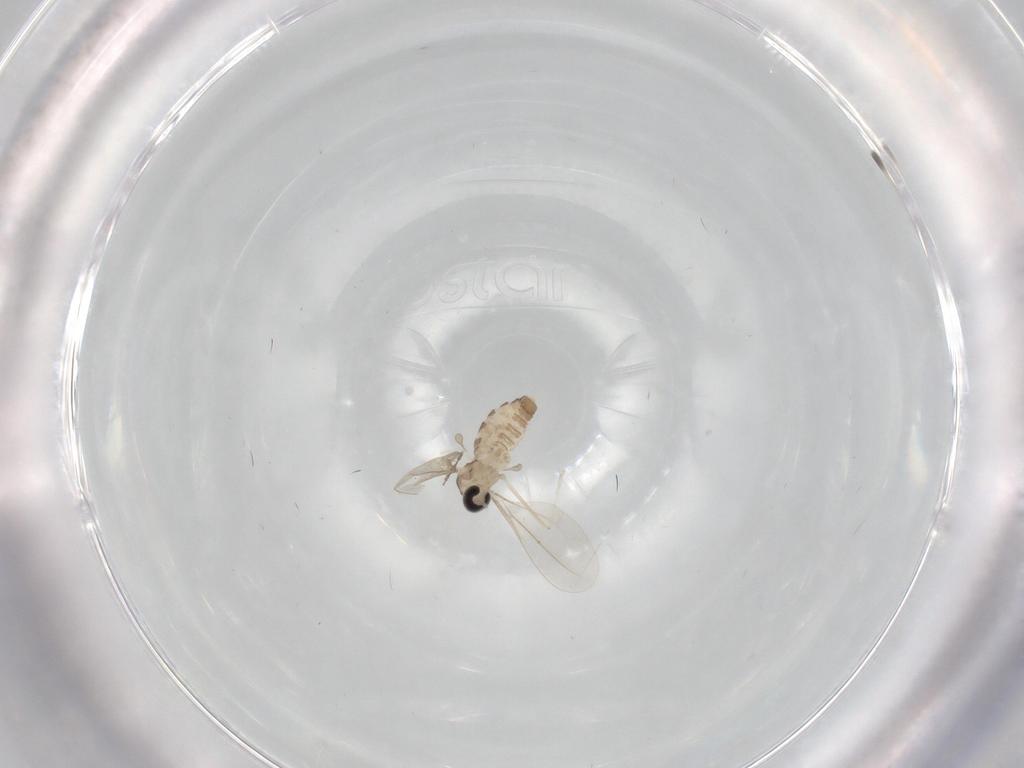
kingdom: Animalia
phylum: Arthropoda
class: Insecta
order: Diptera
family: Cecidomyiidae
